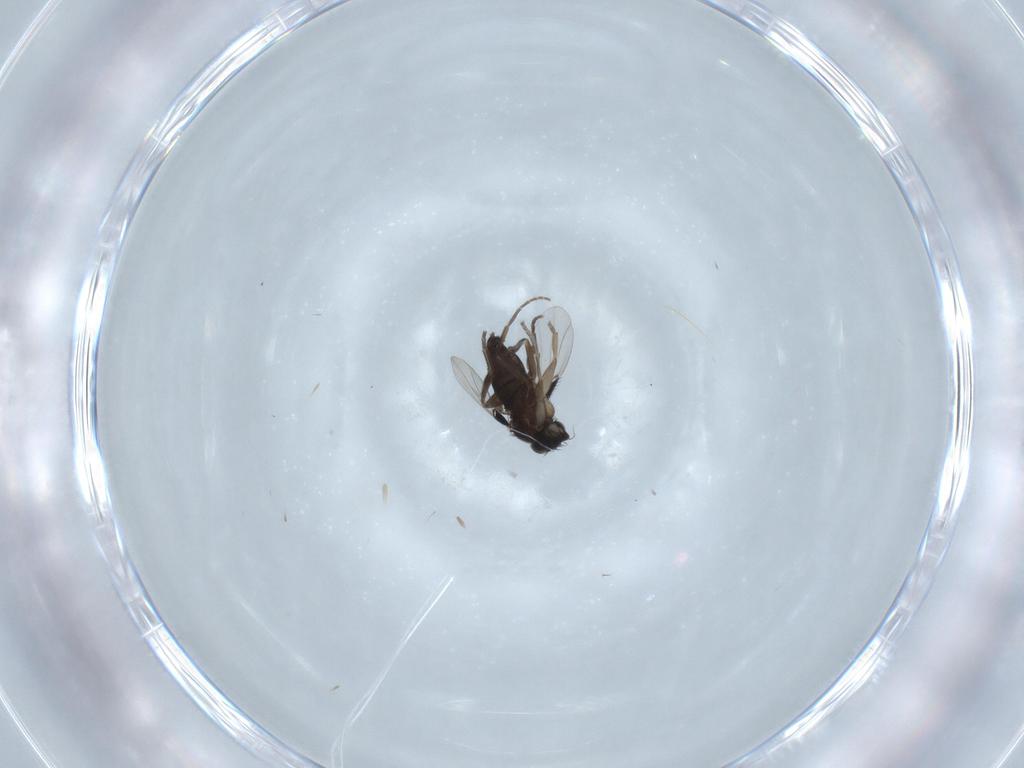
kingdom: Animalia
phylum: Arthropoda
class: Insecta
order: Diptera
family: Phoridae
